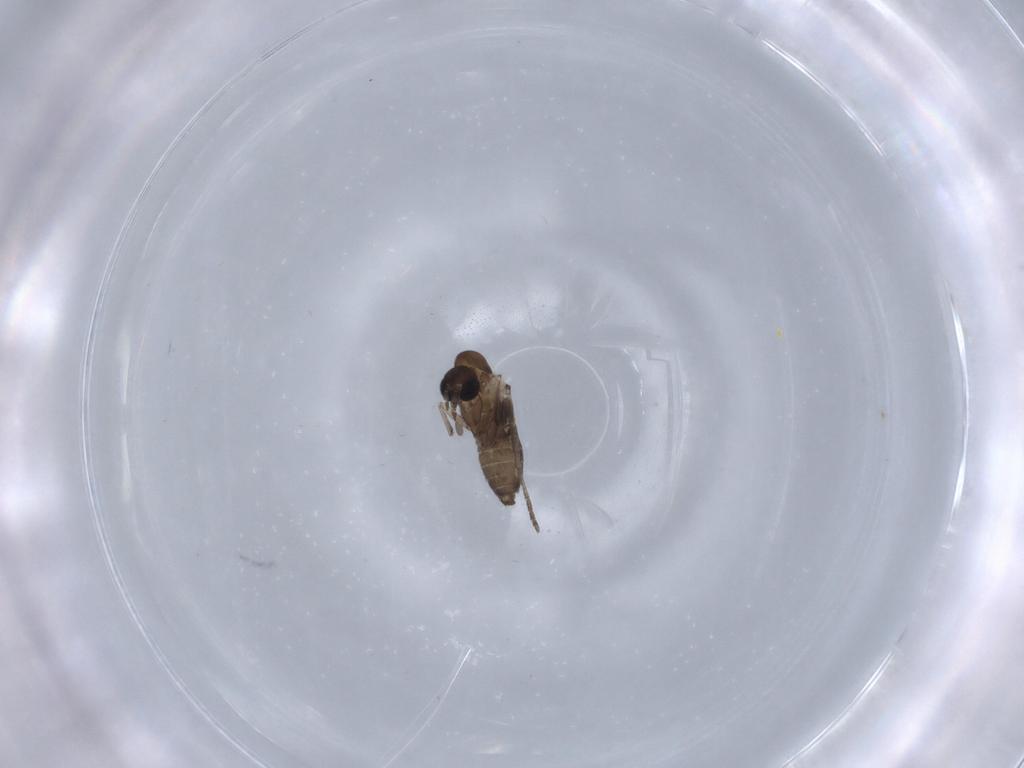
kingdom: Animalia
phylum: Arthropoda
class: Insecta
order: Diptera
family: Psychodidae
